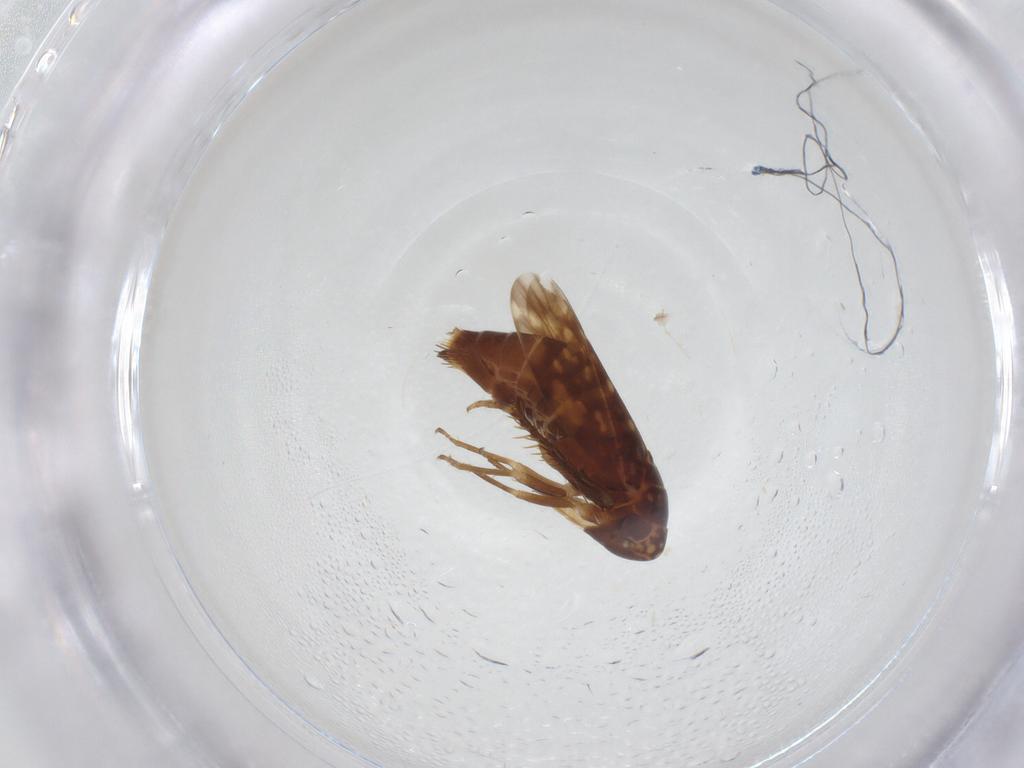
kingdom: Animalia
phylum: Arthropoda
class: Insecta
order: Hemiptera
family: Cicadellidae
